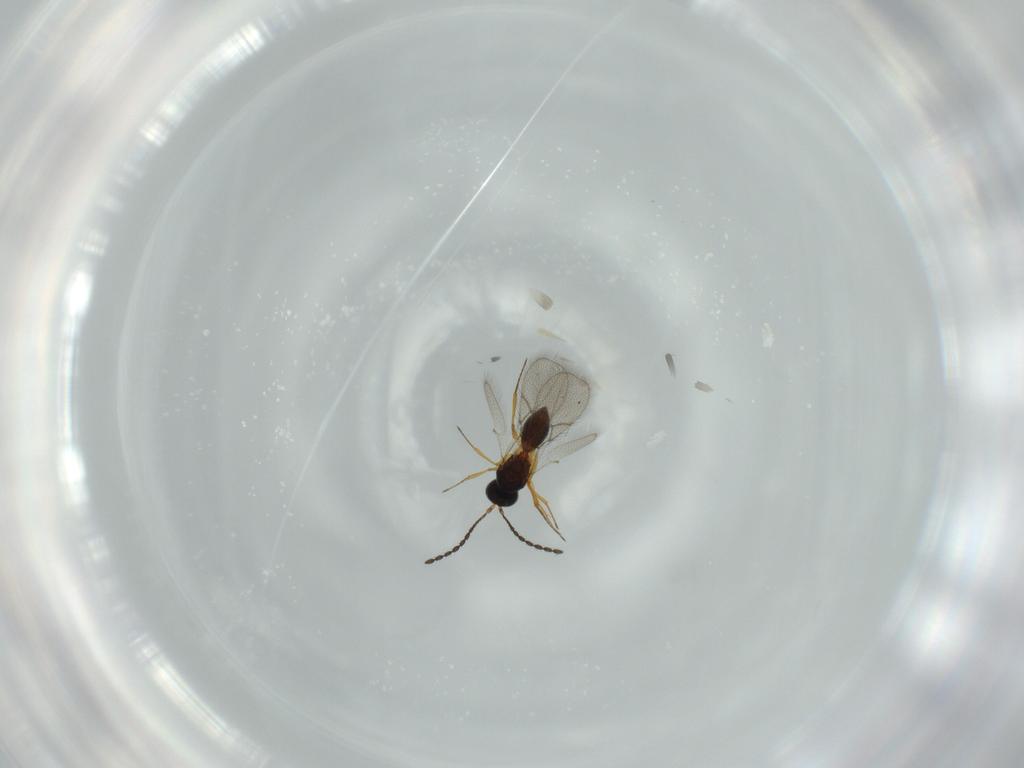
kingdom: Animalia
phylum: Arthropoda
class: Insecta
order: Hymenoptera
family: Figitidae
